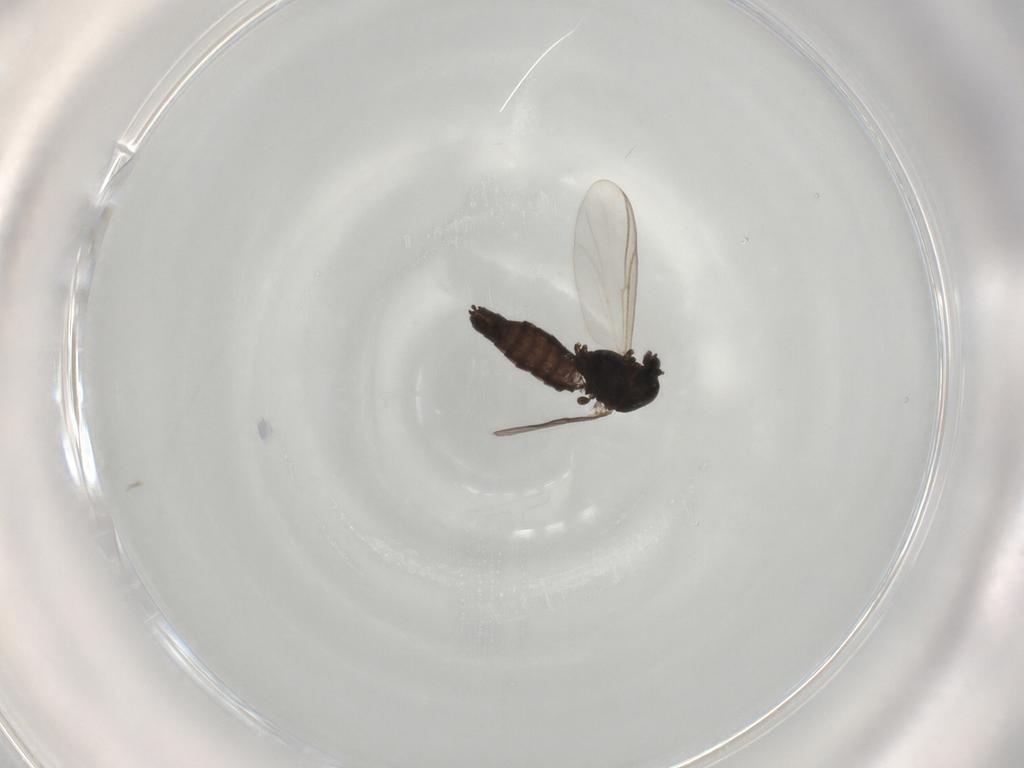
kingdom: Animalia
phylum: Arthropoda
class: Insecta
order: Diptera
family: Chironomidae
